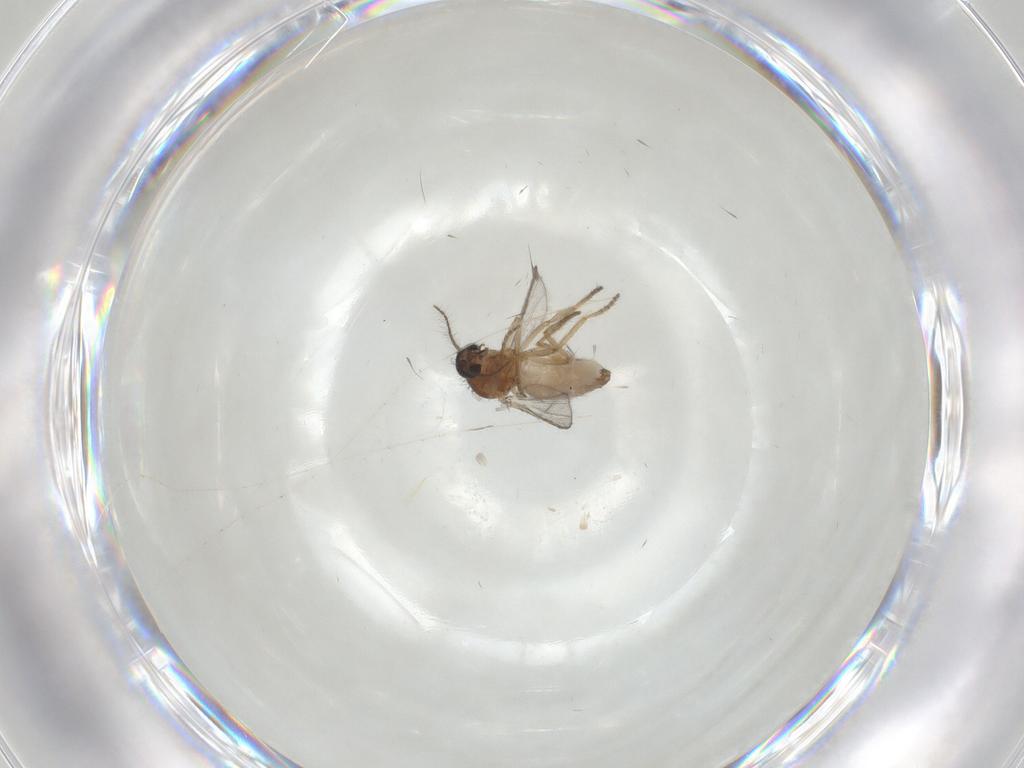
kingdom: Animalia
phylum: Arthropoda
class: Insecta
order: Diptera
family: Ceratopogonidae
